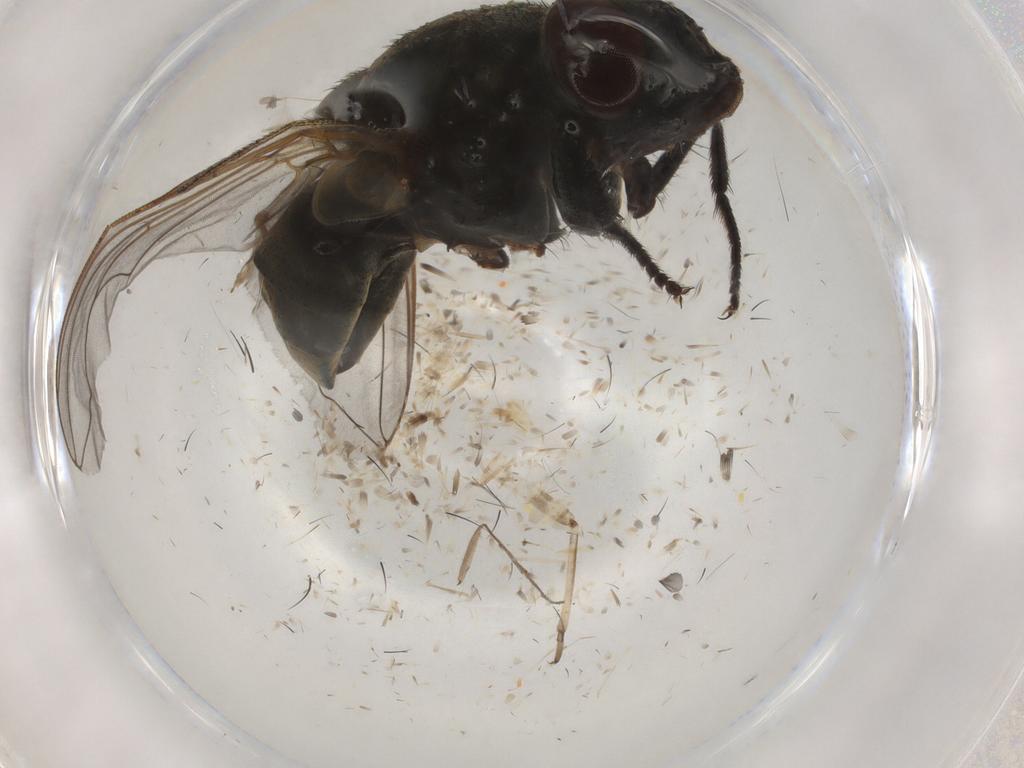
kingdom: Animalia
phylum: Arthropoda
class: Insecta
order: Diptera
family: Muscidae
